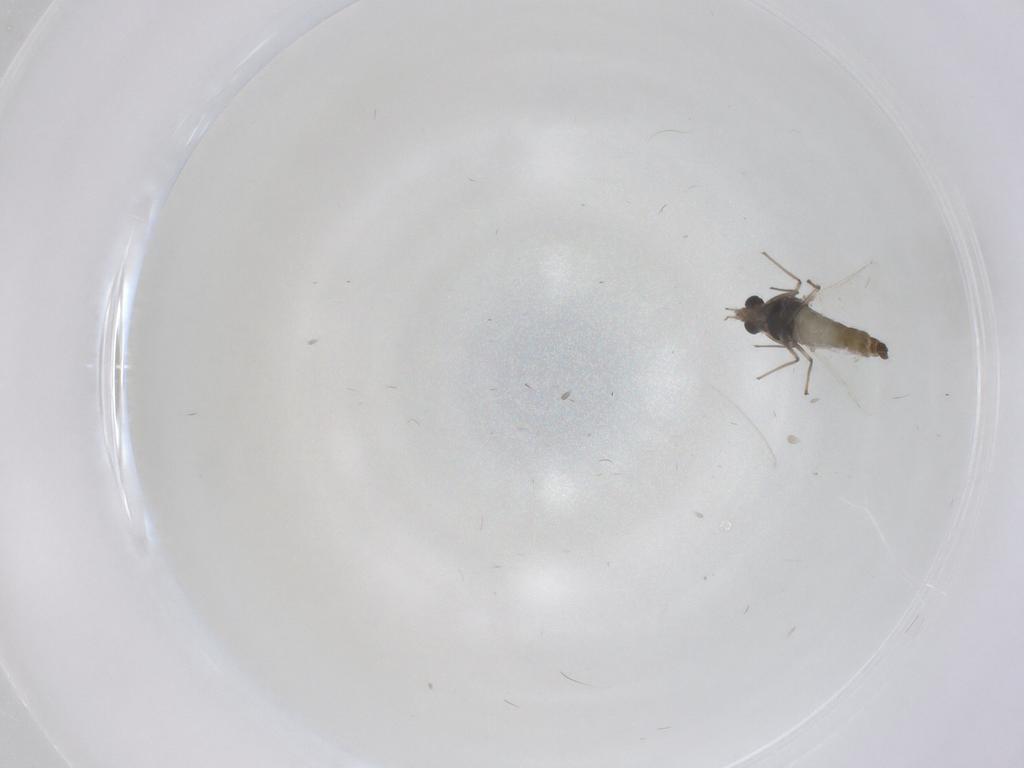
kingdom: Animalia
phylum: Arthropoda
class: Insecta
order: Diptera
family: Chironomidae
